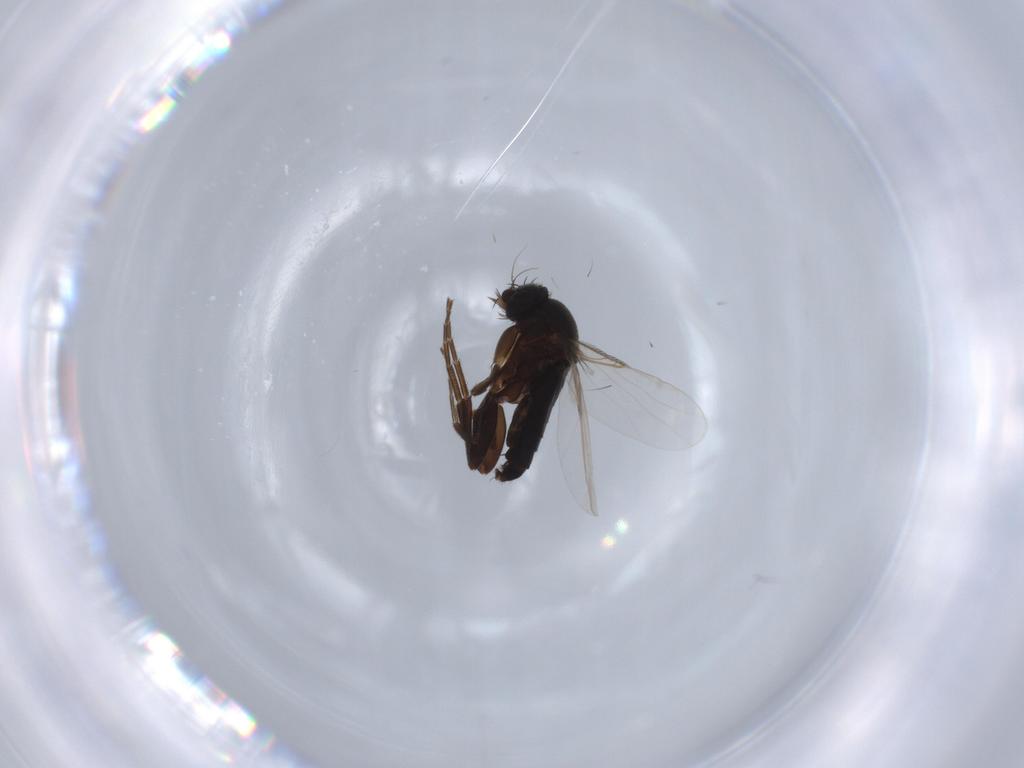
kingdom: Animalia
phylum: Arthropoda
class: Insecta
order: Diptera
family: Phoridae
